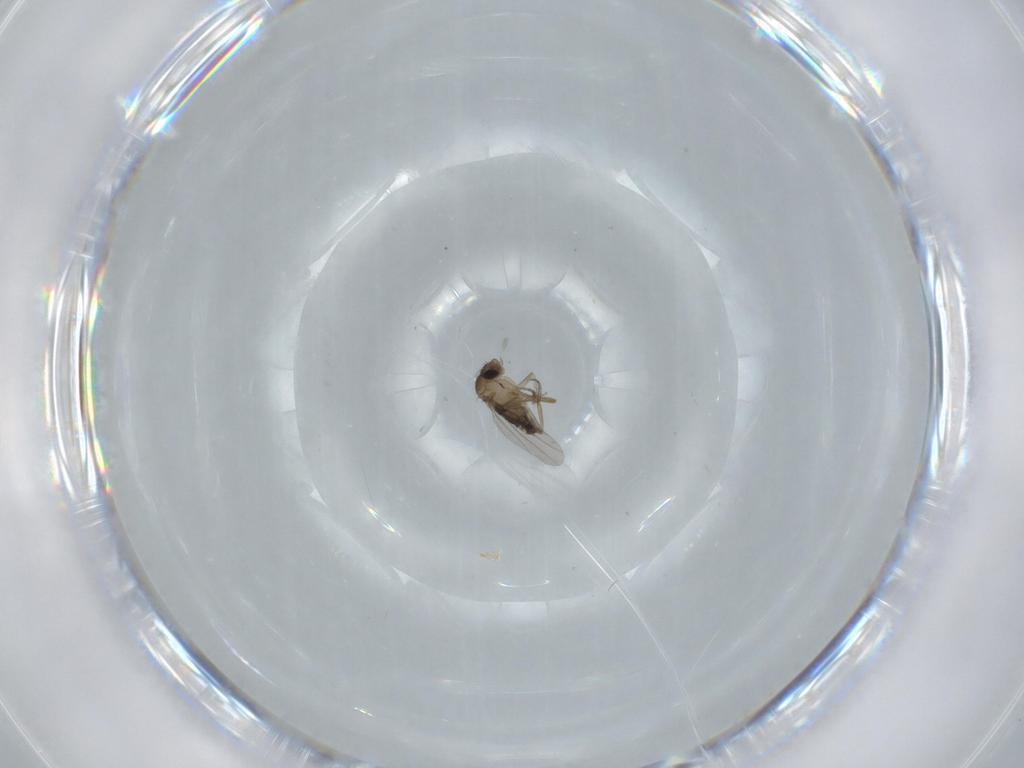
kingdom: Animalia
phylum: Arthropoda
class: Insecta
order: Diptera
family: Phoridae
